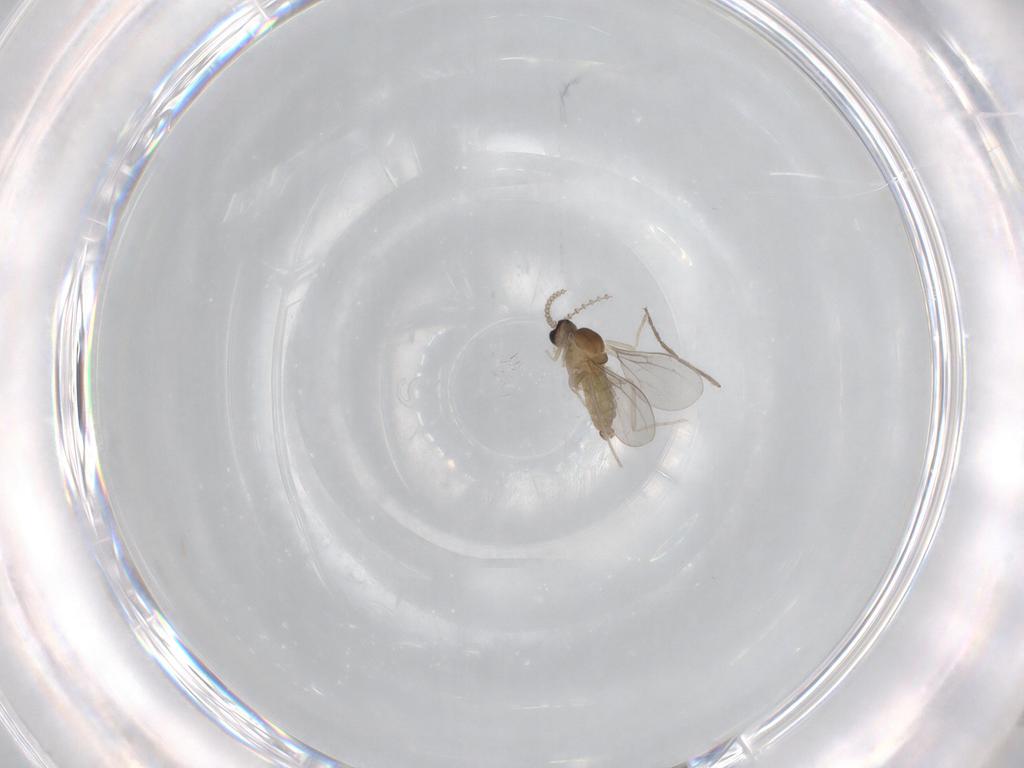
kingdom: Animalia
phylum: Arthropoda
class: Insecta
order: Diptera
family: Cecidomyiidae
